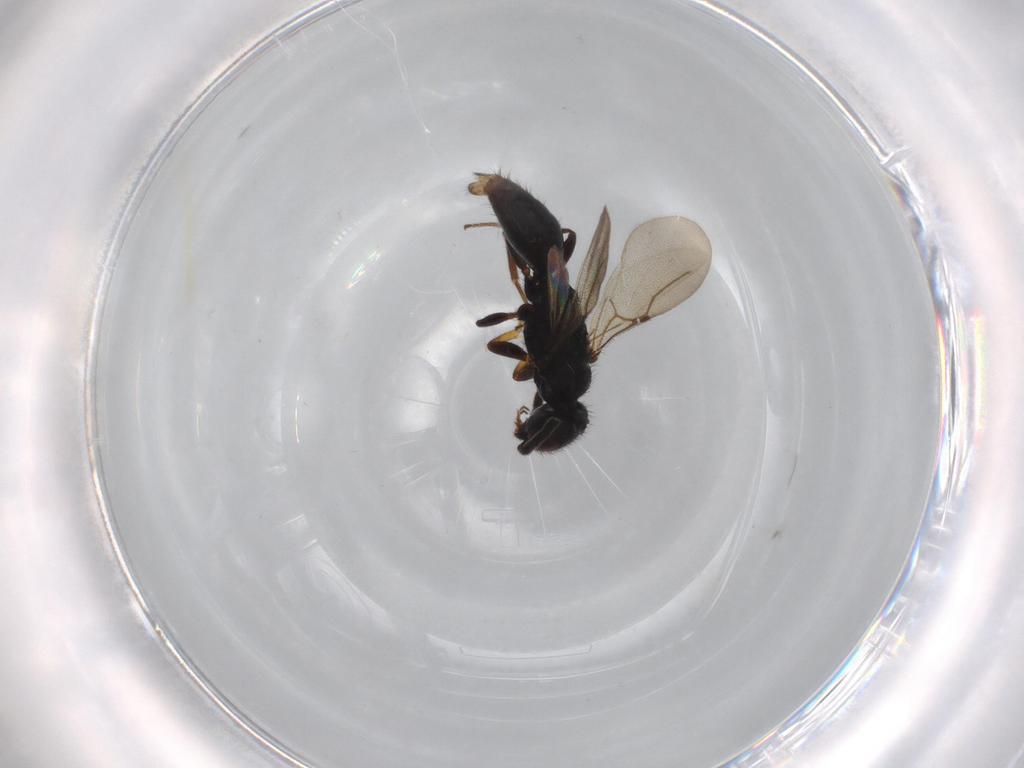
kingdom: Animalia
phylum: Arthropoda
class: Insecta
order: Hymenoptera
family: Bethylidae
